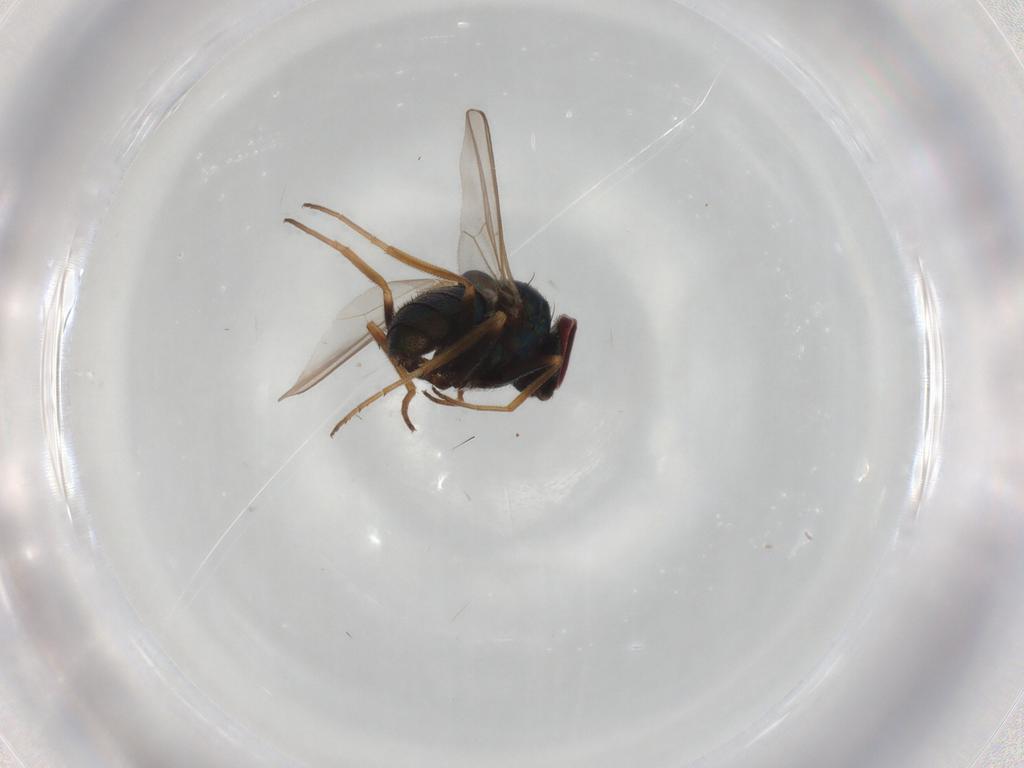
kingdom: Animalia
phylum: Arthropoda
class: Insecta
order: Diptera
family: Dolichopodidae
